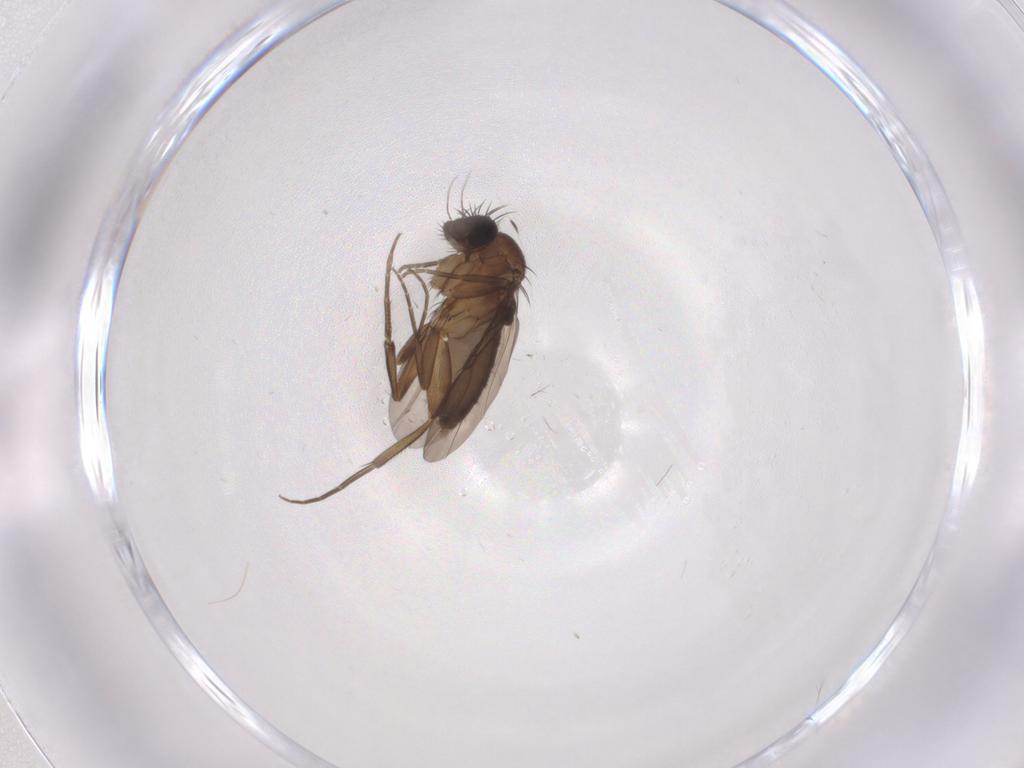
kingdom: Animalia
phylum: Arthropoda
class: Insecta
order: Diptera
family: Phoridae
